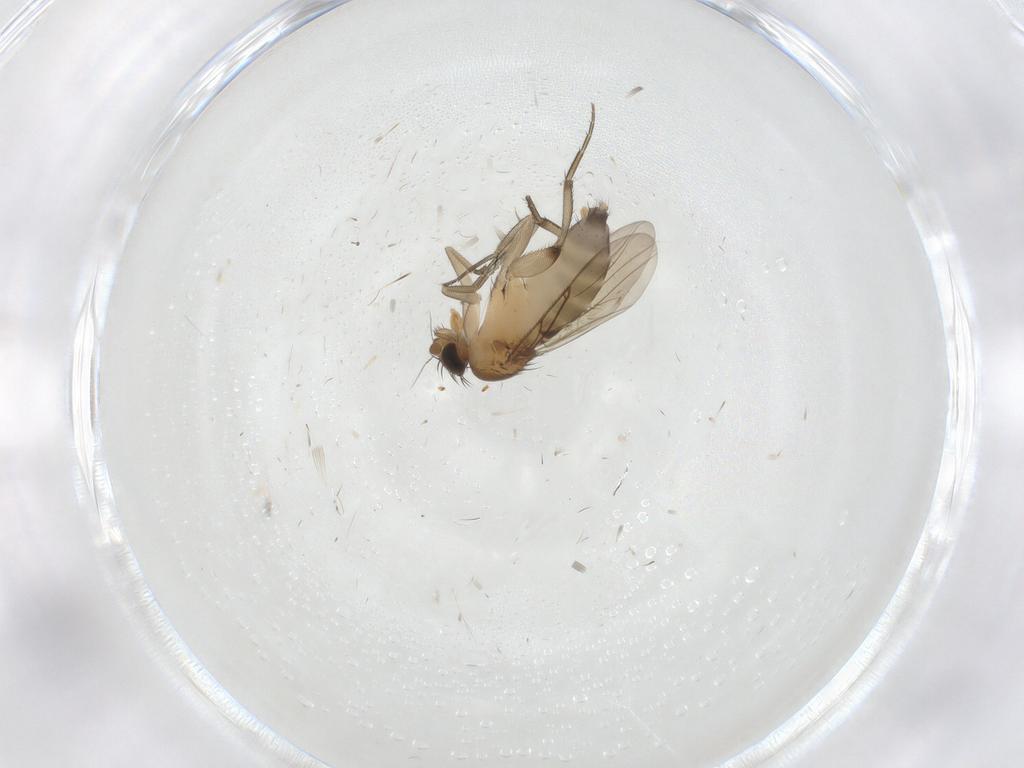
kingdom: Animalia
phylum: Arthropoda
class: Insecta
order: Diptera
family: Phoridae
